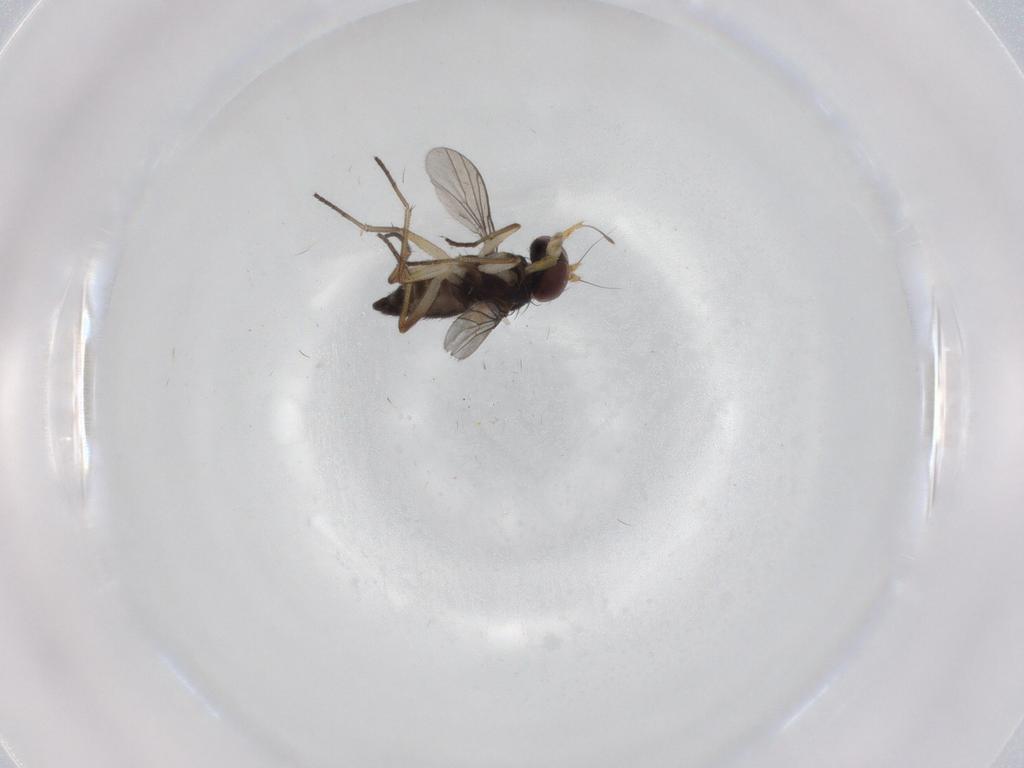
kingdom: Animalia
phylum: Arthropoda
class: Insecta
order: Diptera
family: Dolichopodidae
